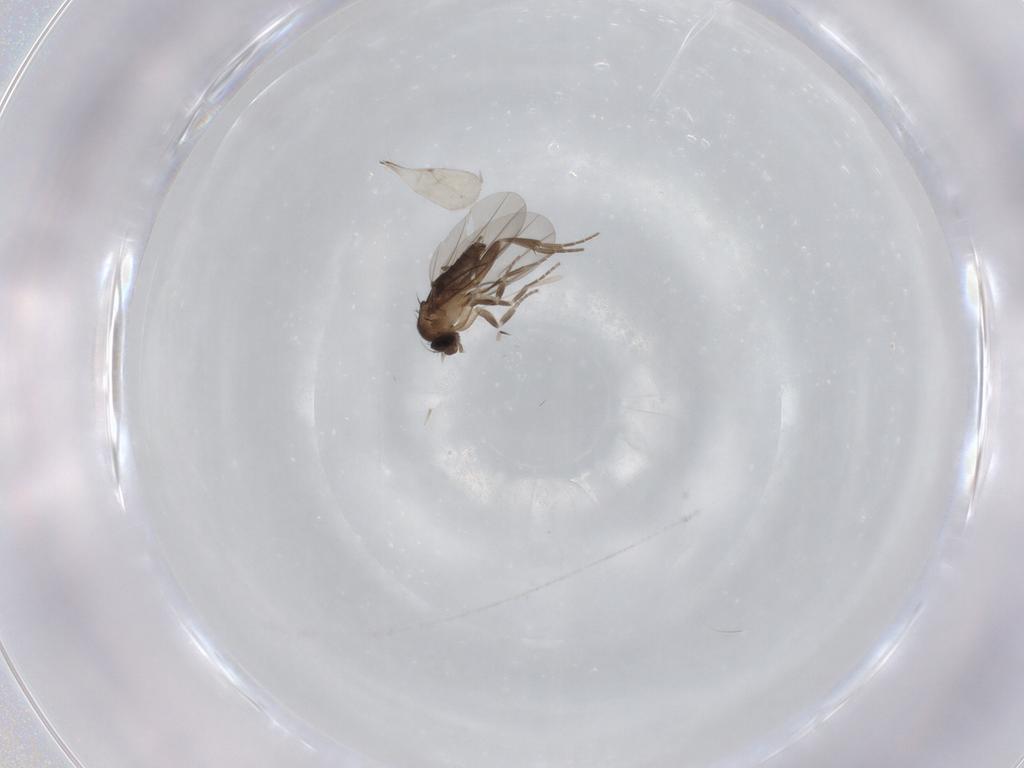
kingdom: Animalia
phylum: Arthropoda
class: Insecta
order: Diptera
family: Phoridae
